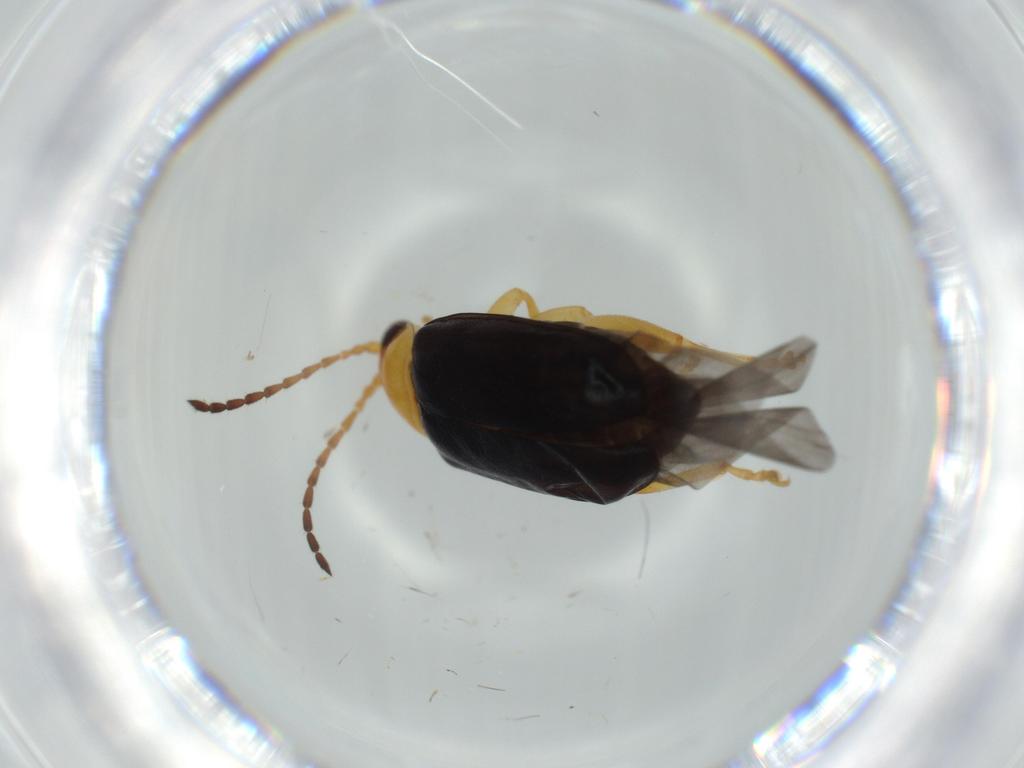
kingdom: Animalia
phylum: Arthropoda
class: Insecta
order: Coleoptera
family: Chrysomelidae
